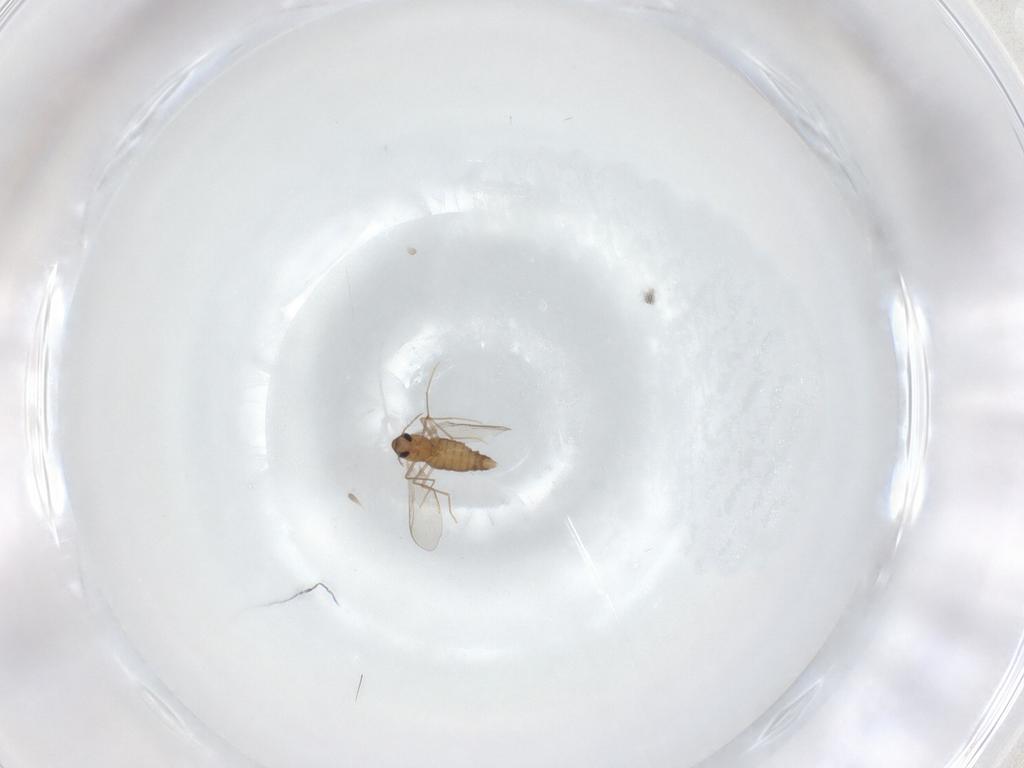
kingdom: Animalia
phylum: Arthropoda
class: Insecta
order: Diptera
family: Chironomidae
